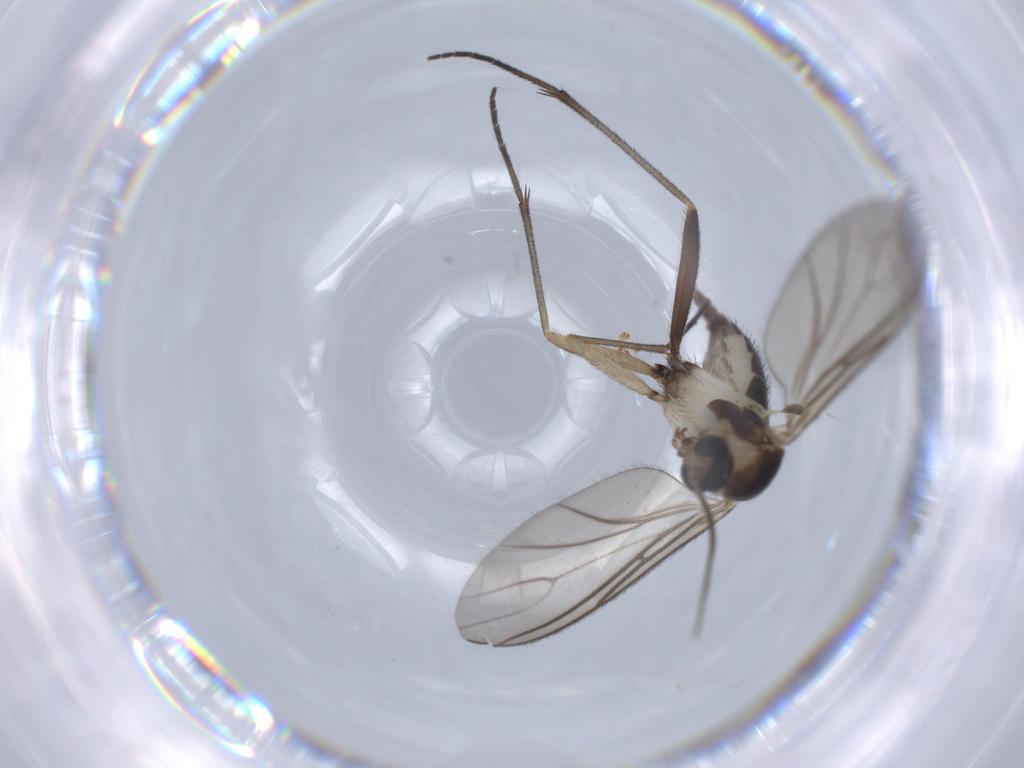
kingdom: Animalia
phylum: Arthropoda
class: Insecta
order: Diptera
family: Sciaridae
